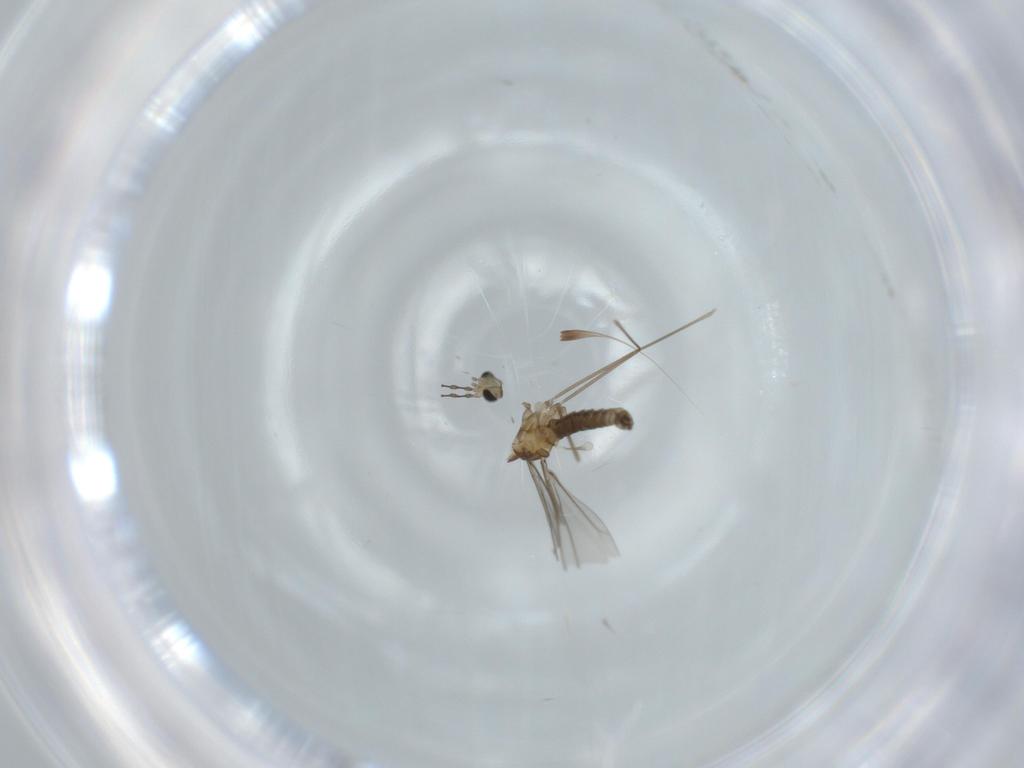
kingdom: Animalia
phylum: Arthropoda
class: Insecta
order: Diptera
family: Cecidomyiidae
